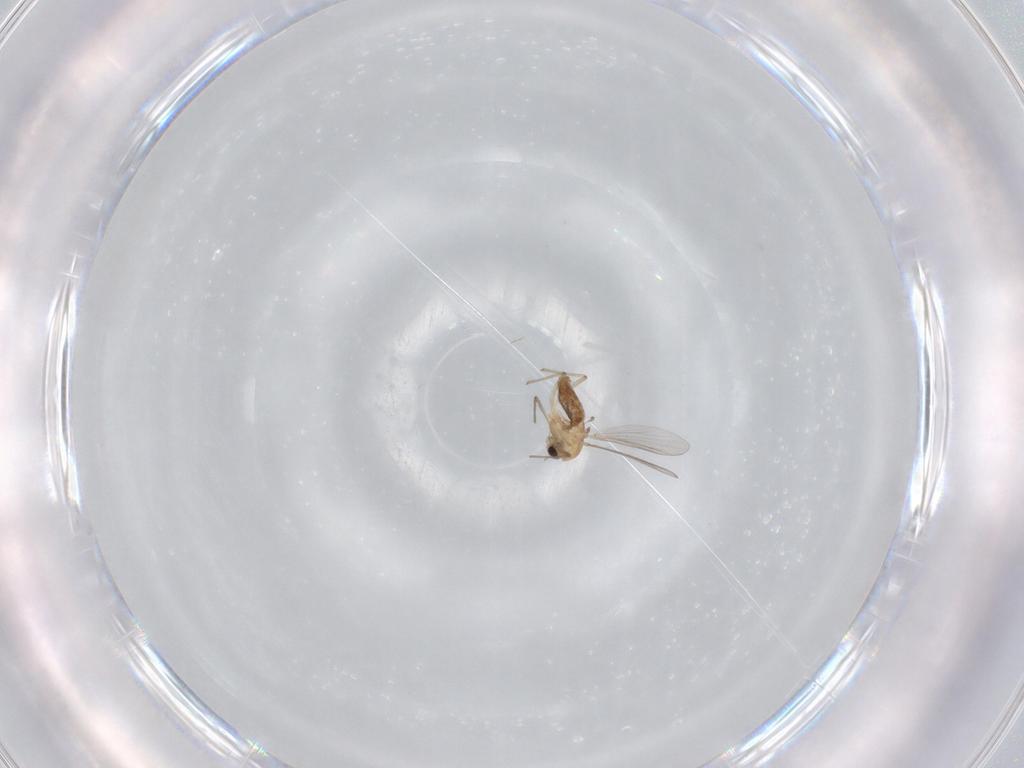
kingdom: Animalia
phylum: Arthropoda
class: Insecta
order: Diptera
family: Chironomidae
